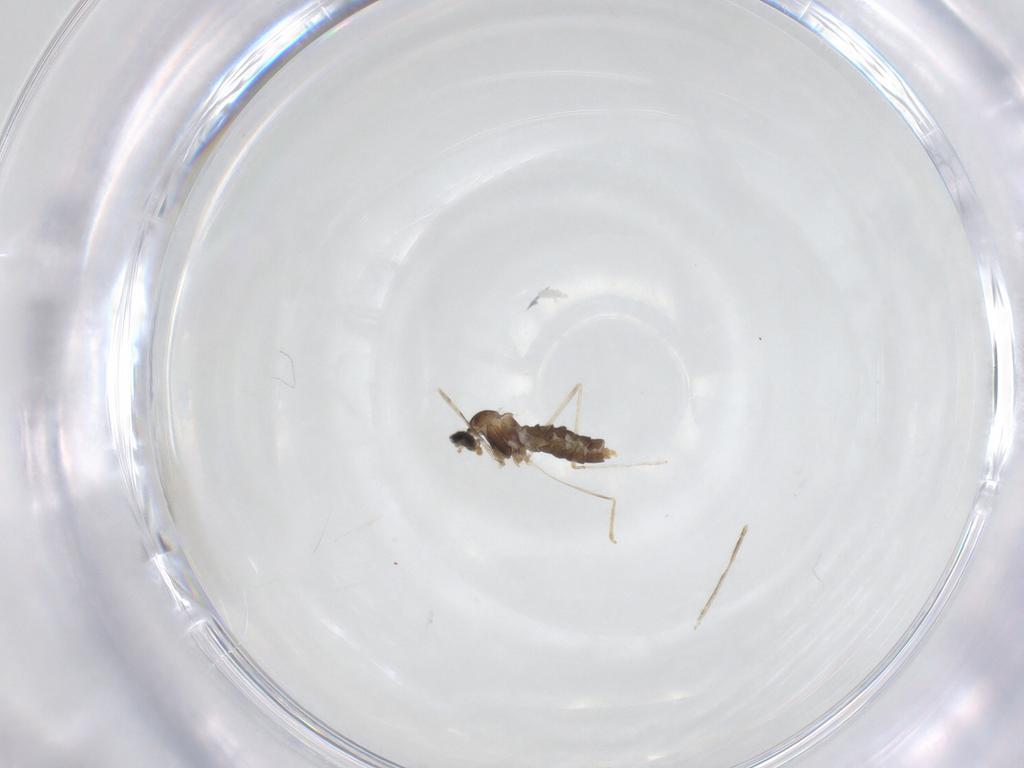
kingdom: Animalia
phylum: Arthropoda
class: Insecta
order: Diptera
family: Cecidomyiidae
